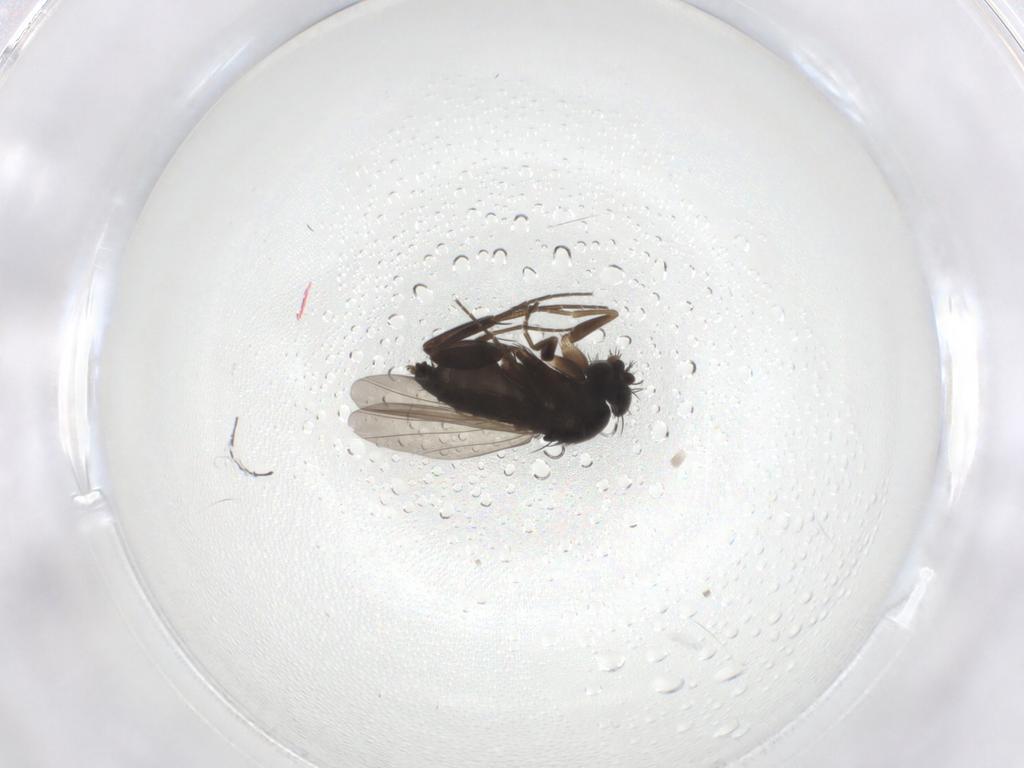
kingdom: Animalia
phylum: Arthropoda
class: Insecta
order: Diptera
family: Phoridae
